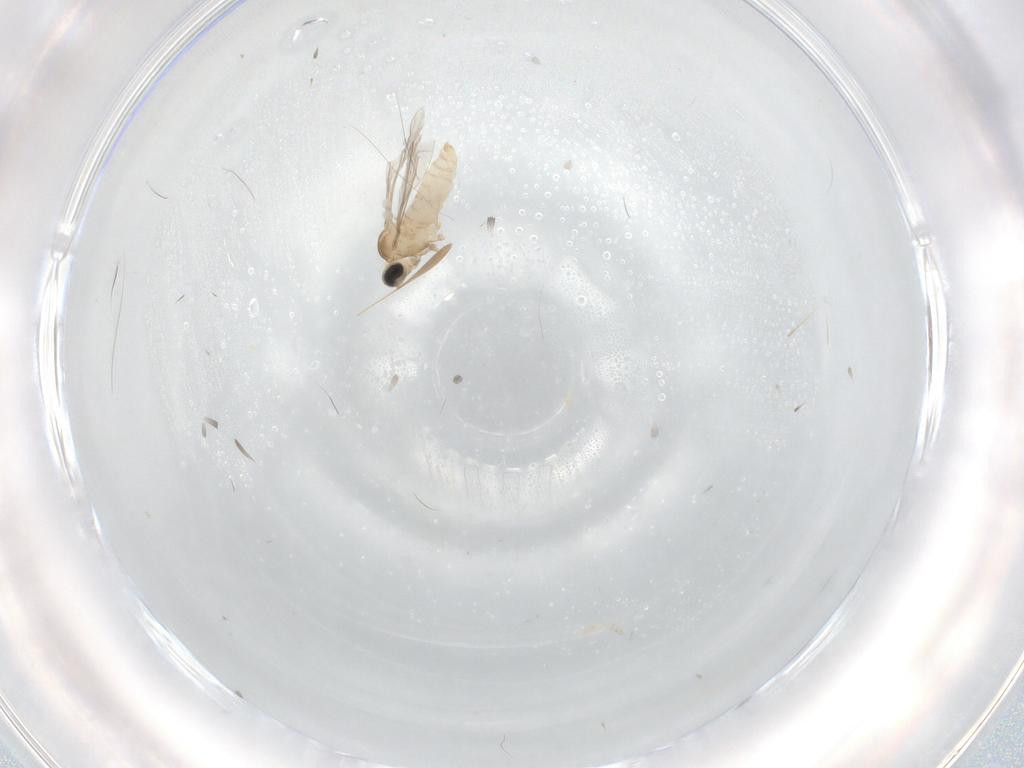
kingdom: Animalia
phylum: Arthropoda
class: Insecta
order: Diptera
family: Cecidomyiidae
